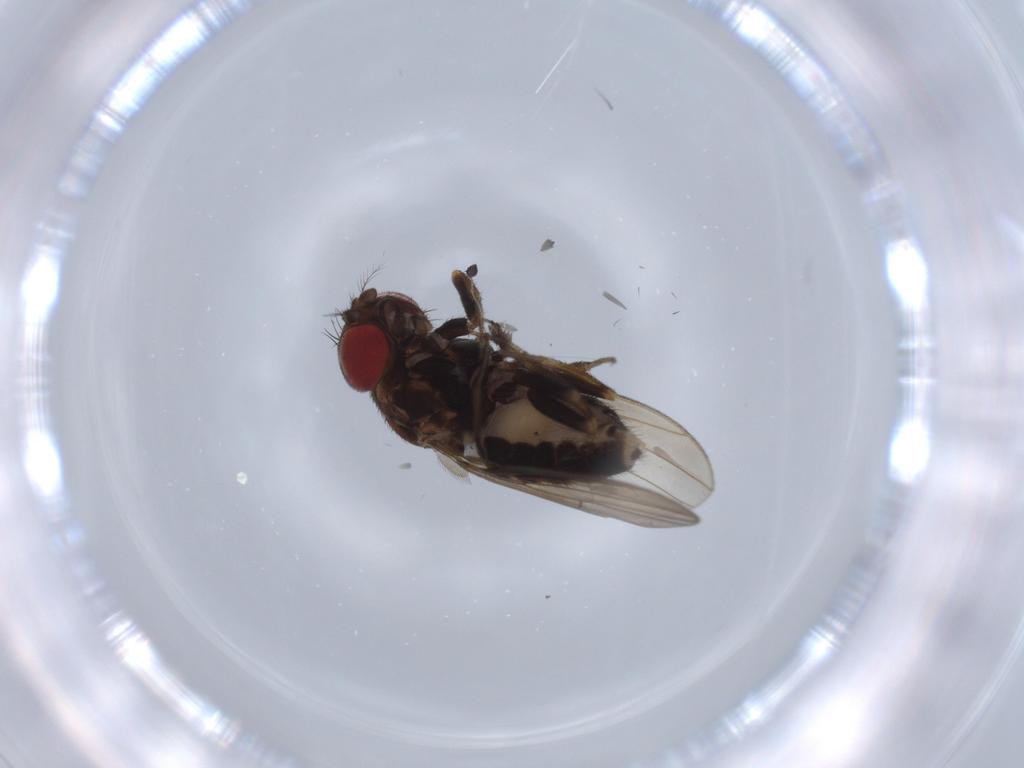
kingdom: Animalia
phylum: Arthropoda
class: Insecta
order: Diptera
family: Drosophilidae
